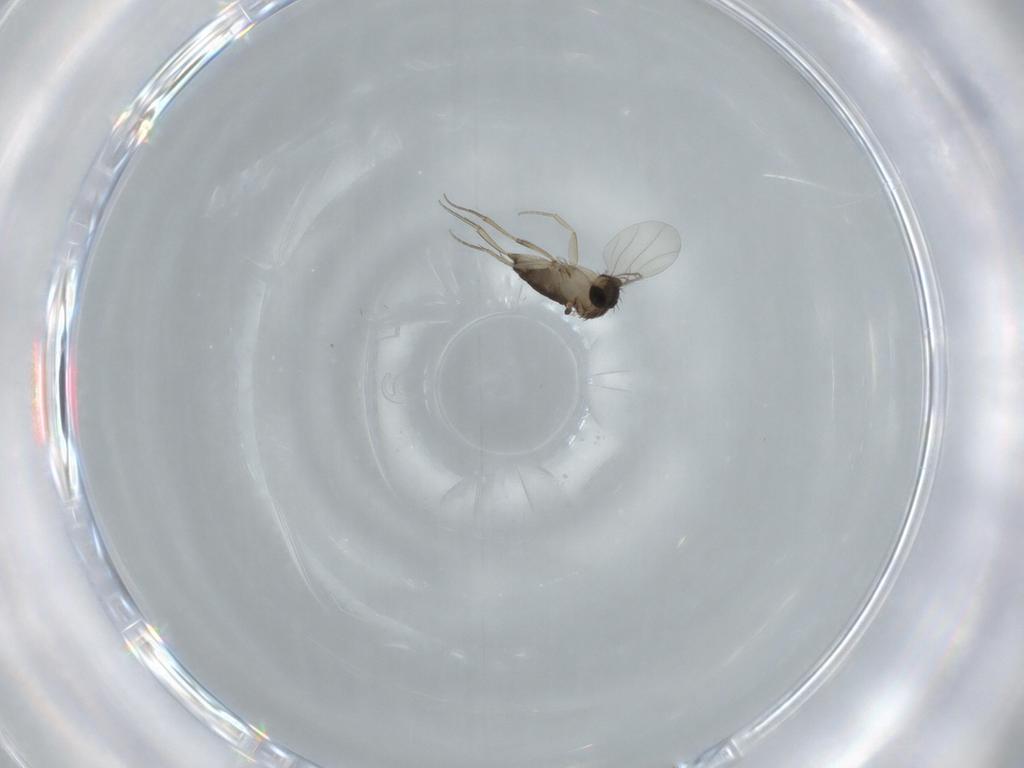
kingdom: Animalia
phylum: Arthropoda
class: Insecta
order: Diptera
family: Phoridae
